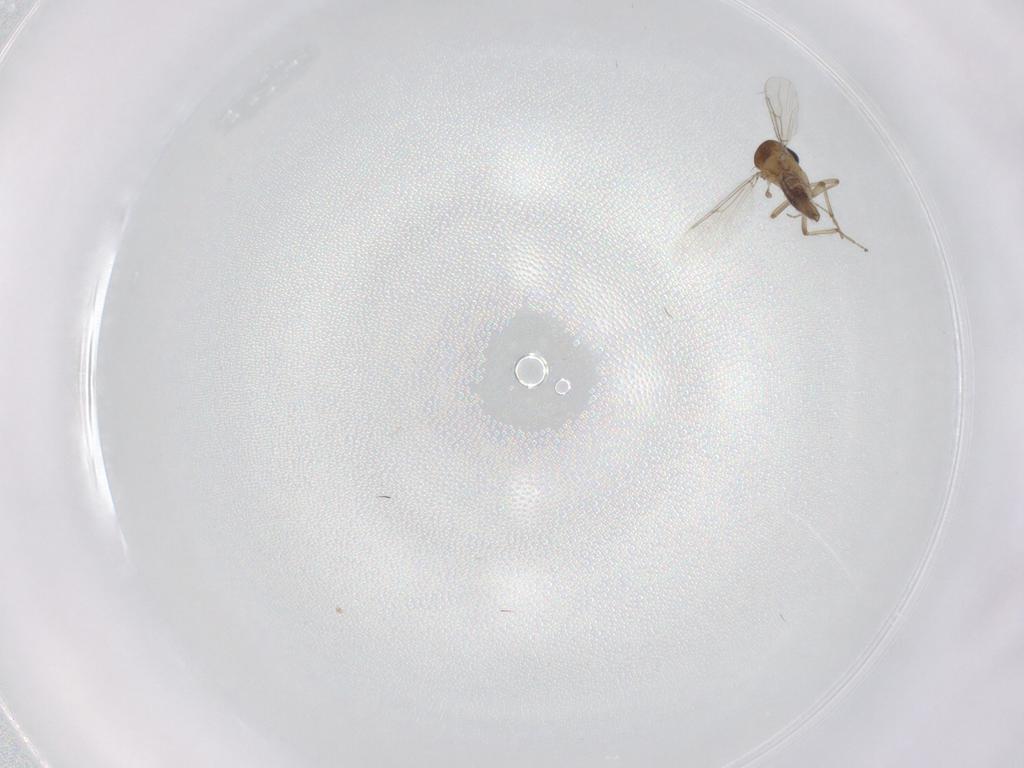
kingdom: Animalia
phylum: Arthropoda
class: Insecta
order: Diptera
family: Ceratopogonidae
